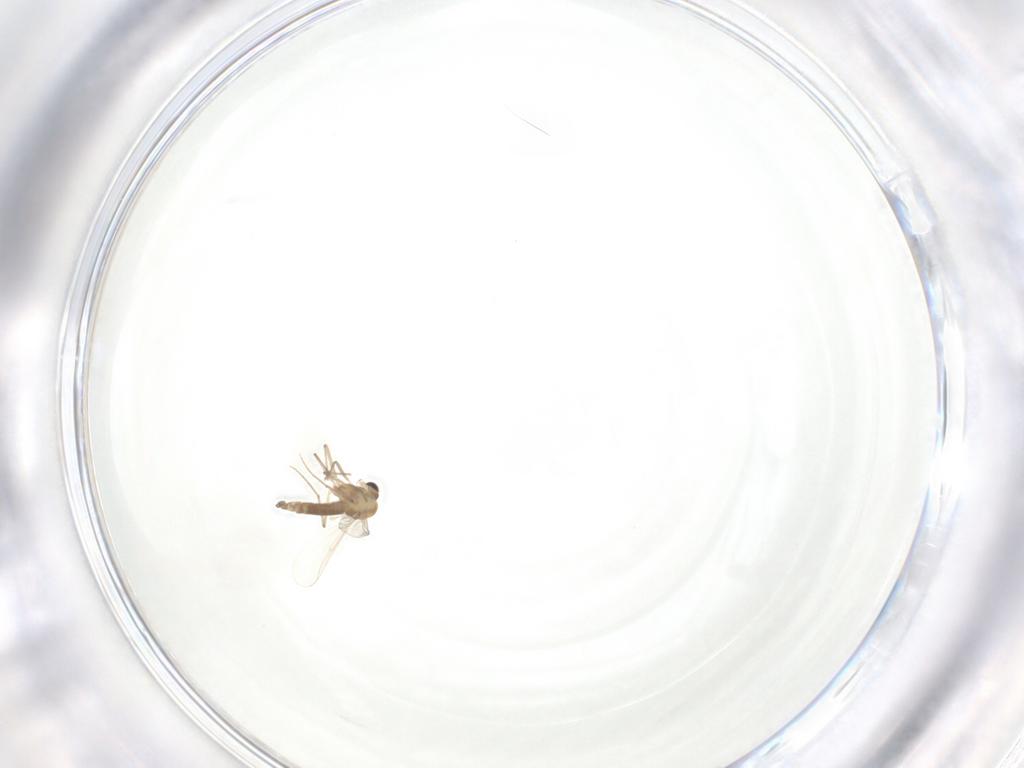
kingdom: Animalia
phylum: Arthropoda
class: Insecta
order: Diptera
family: Chironomidae
